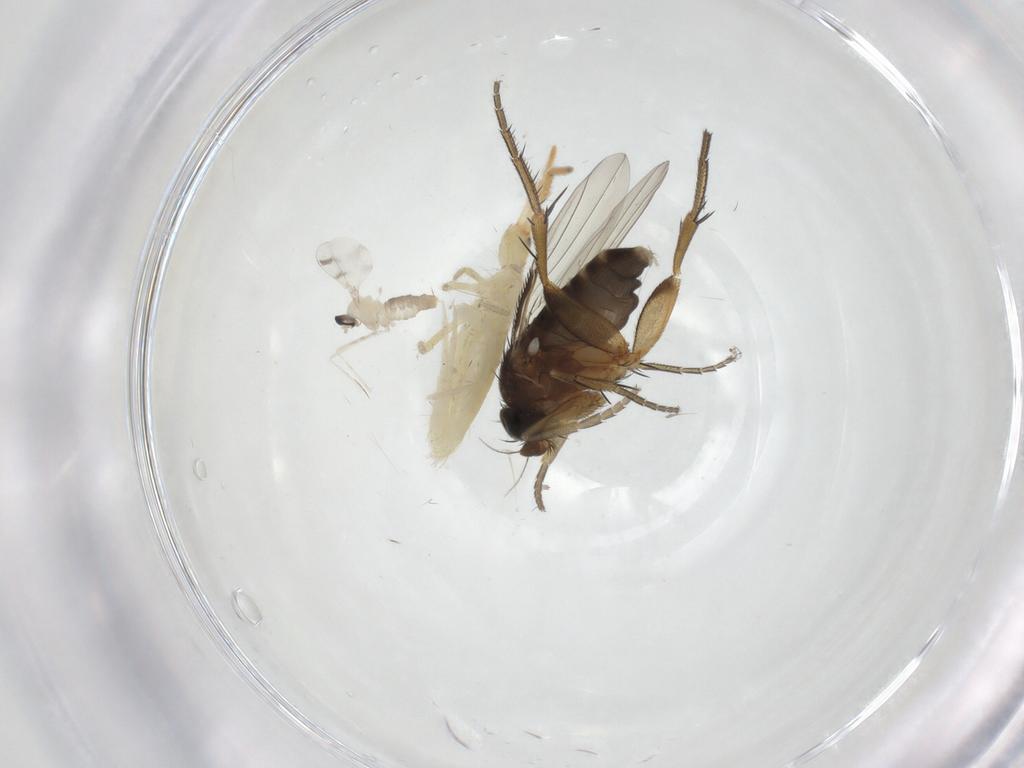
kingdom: Animalia
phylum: Arthropoda
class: Collembola
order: Entomobryomorpha
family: Entomobryidae
